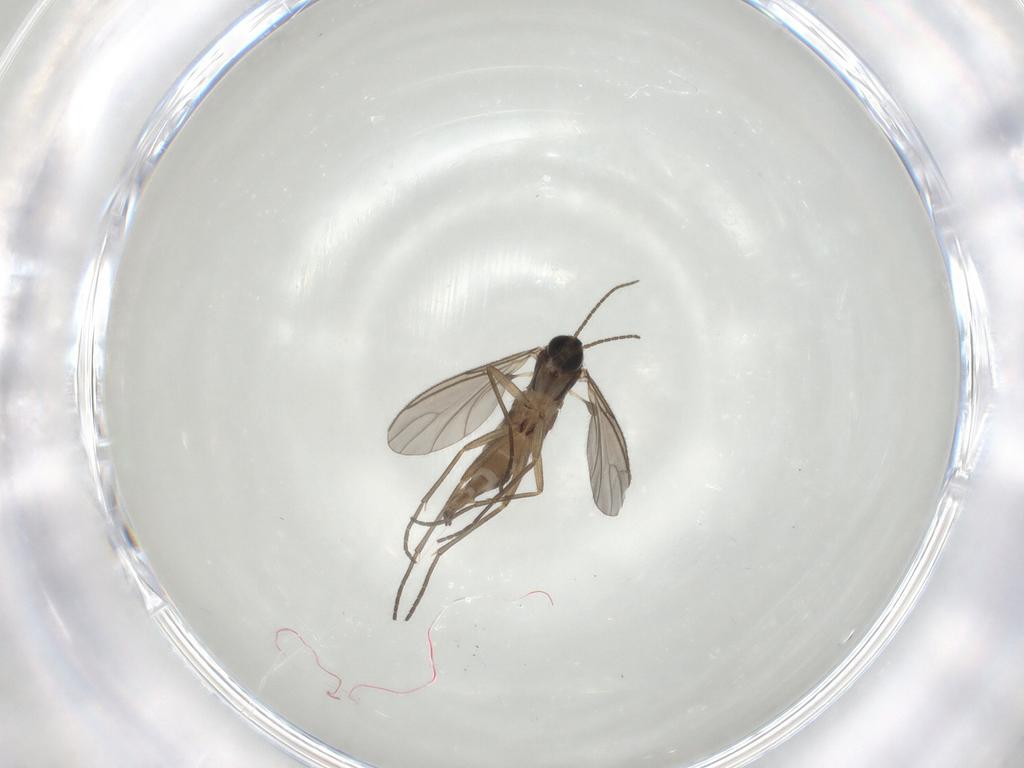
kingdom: Animalia
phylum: Arthropoda
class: Insecta
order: Diptera
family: Sciaridae
